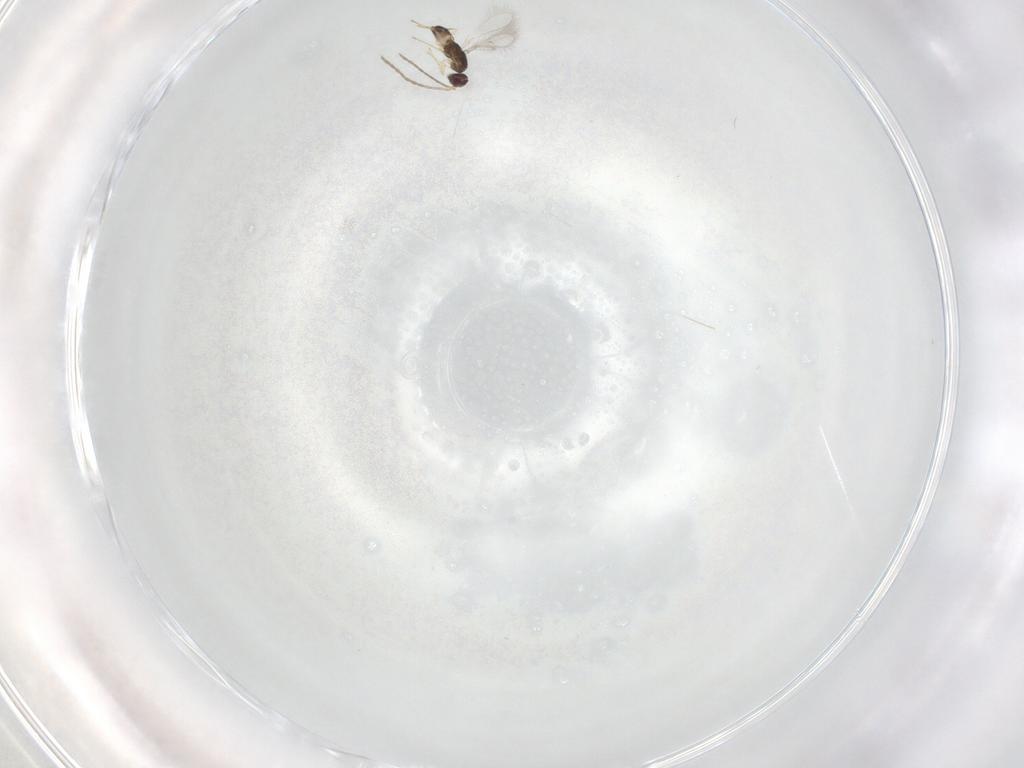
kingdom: Animalia
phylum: Arthropoda
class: Insecta
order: Hymenoptera
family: Mymaridae
